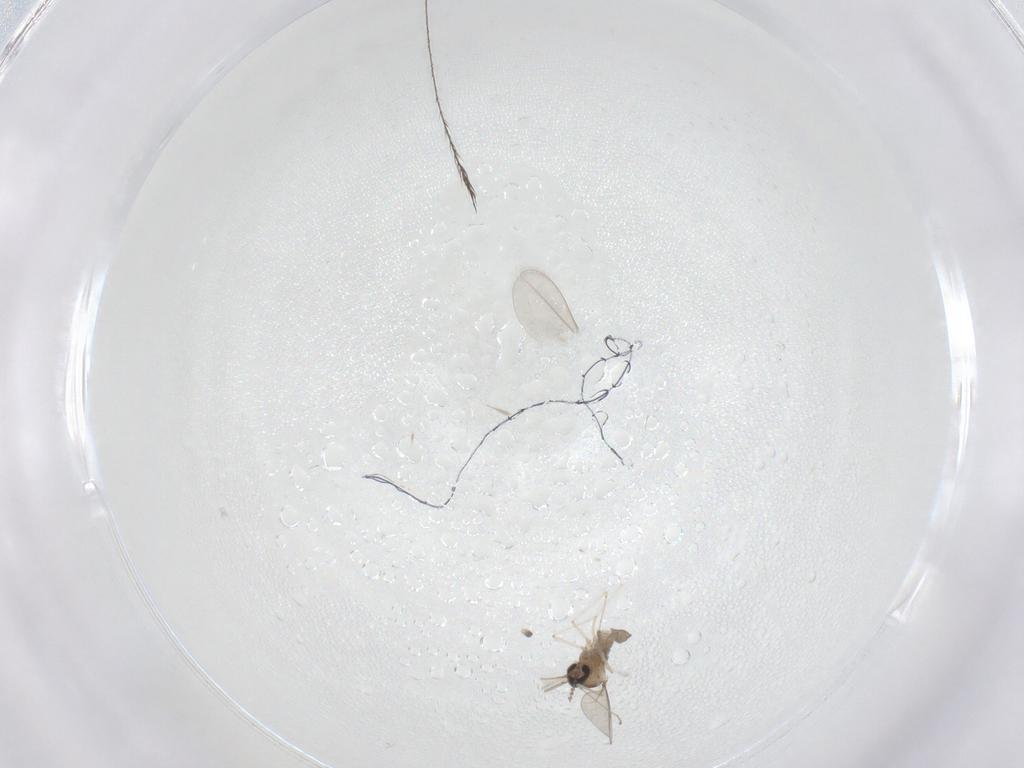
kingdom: Animalia
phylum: Arthropoda
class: Insecta
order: Diptera
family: Cecidomyiidae
